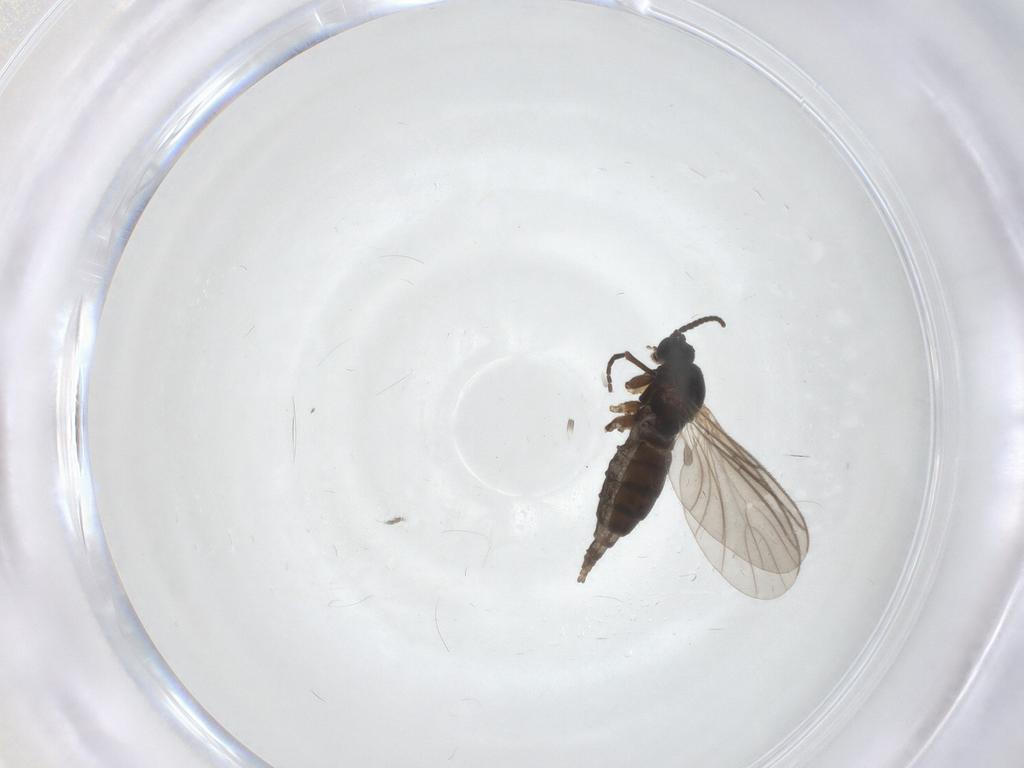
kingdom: Animalia
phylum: Arthropoda
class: Insecta
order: Diptera
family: Cecidomyiidae
